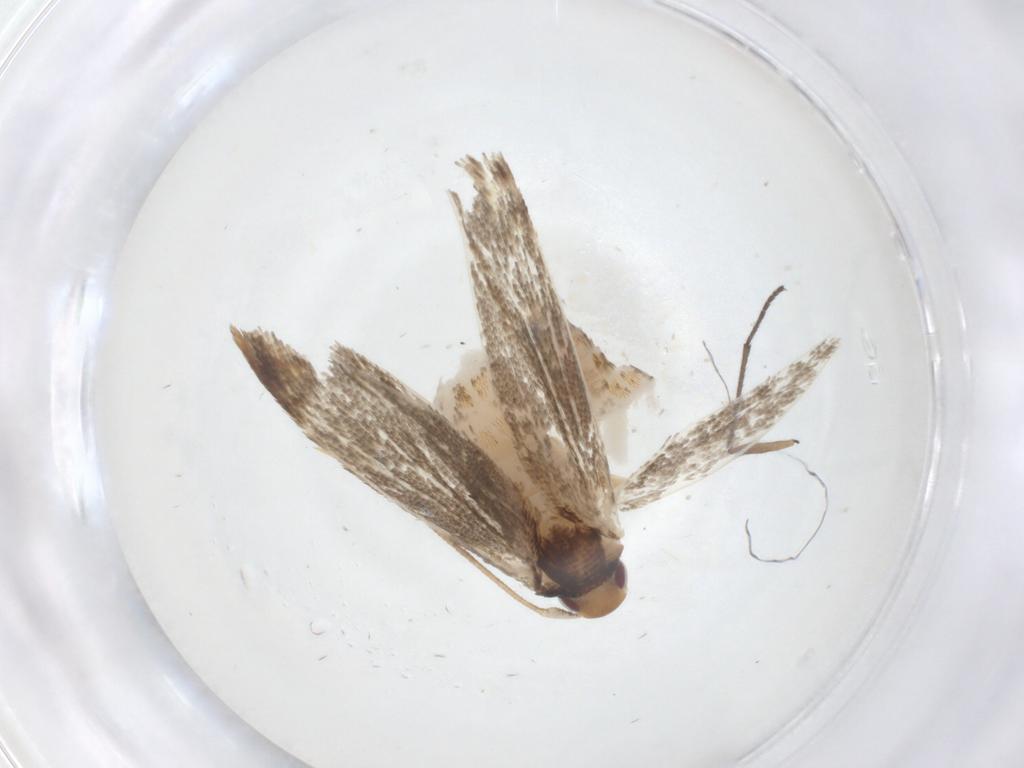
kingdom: Animalia
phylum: Arthropoda
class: Insecta
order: Lepidoptera
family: Momphidae
